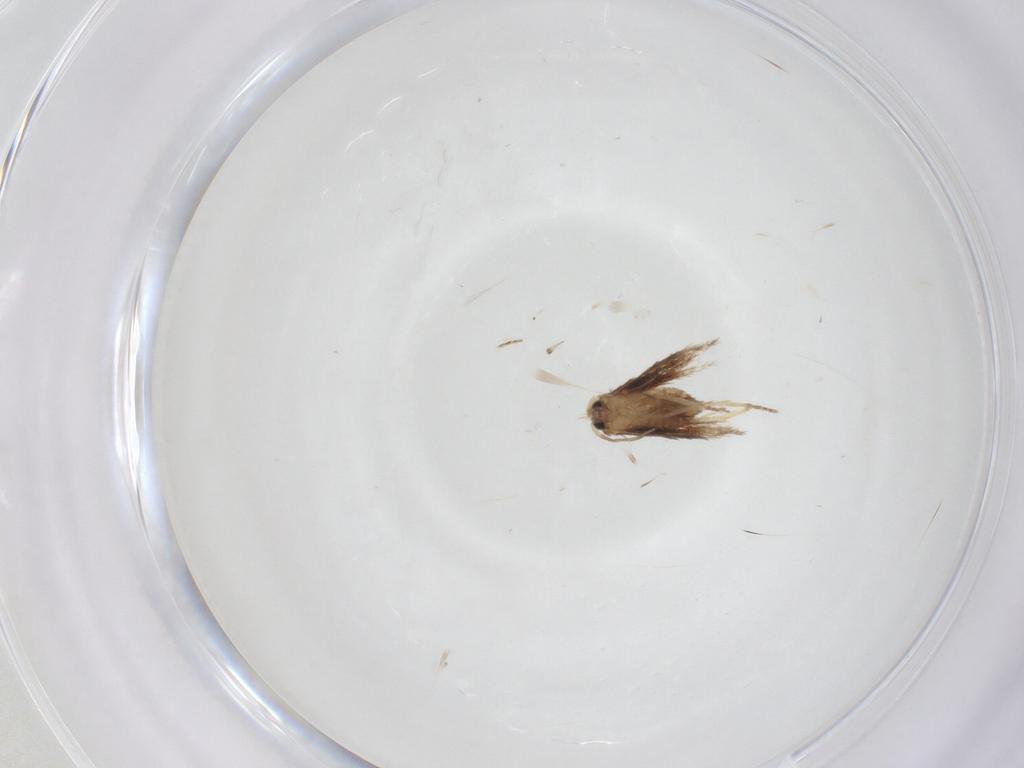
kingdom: Animalia
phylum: Arthropoda
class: Insecta
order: Lepidoptera
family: Nepticulidae
